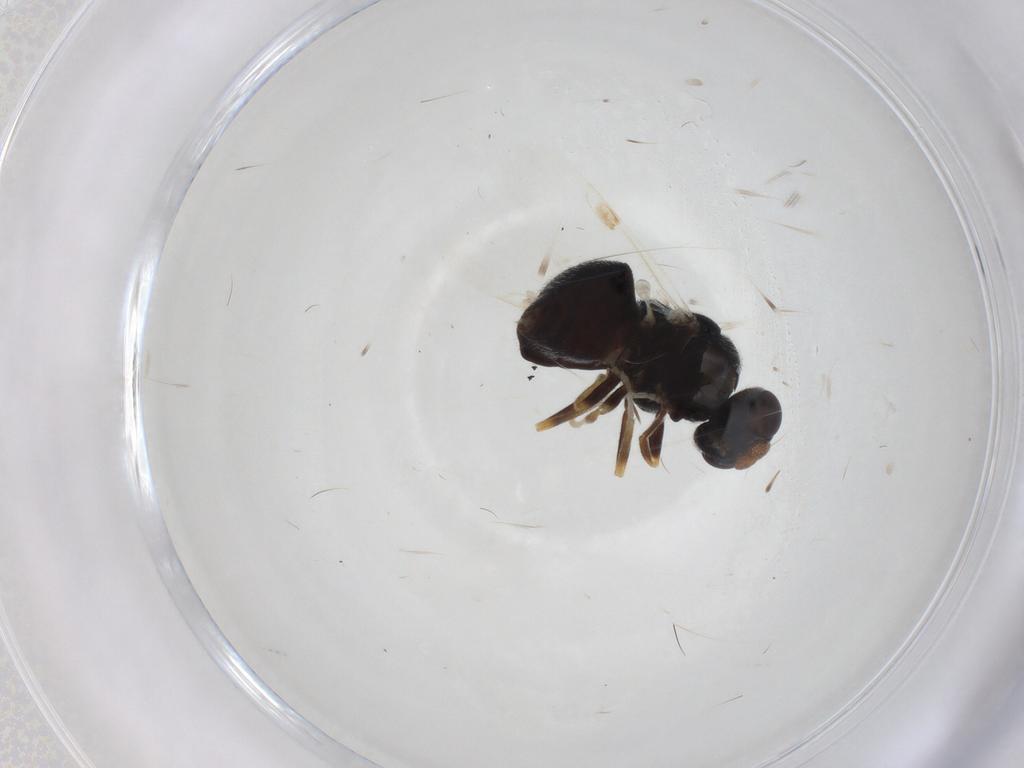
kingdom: Animalia
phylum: Arthropoda
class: Insecta
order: Diptera
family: Stratiomyidae
